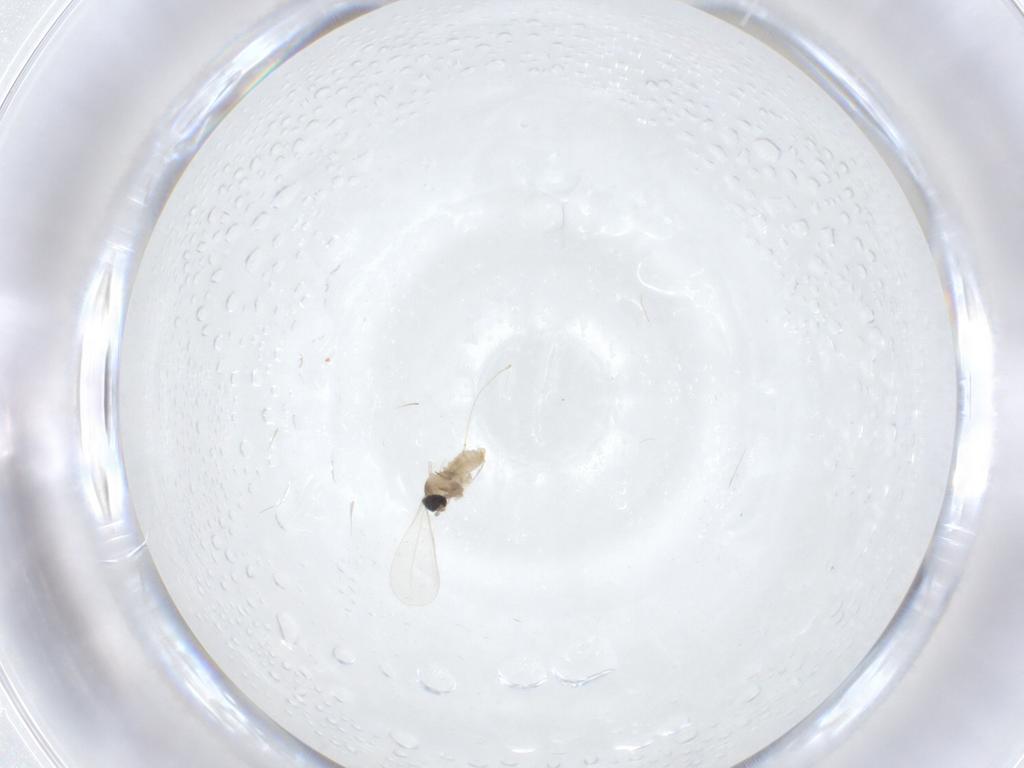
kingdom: Animalia
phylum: Arthropoda
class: Insecta
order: Diptera
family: Cecidomyiidae
